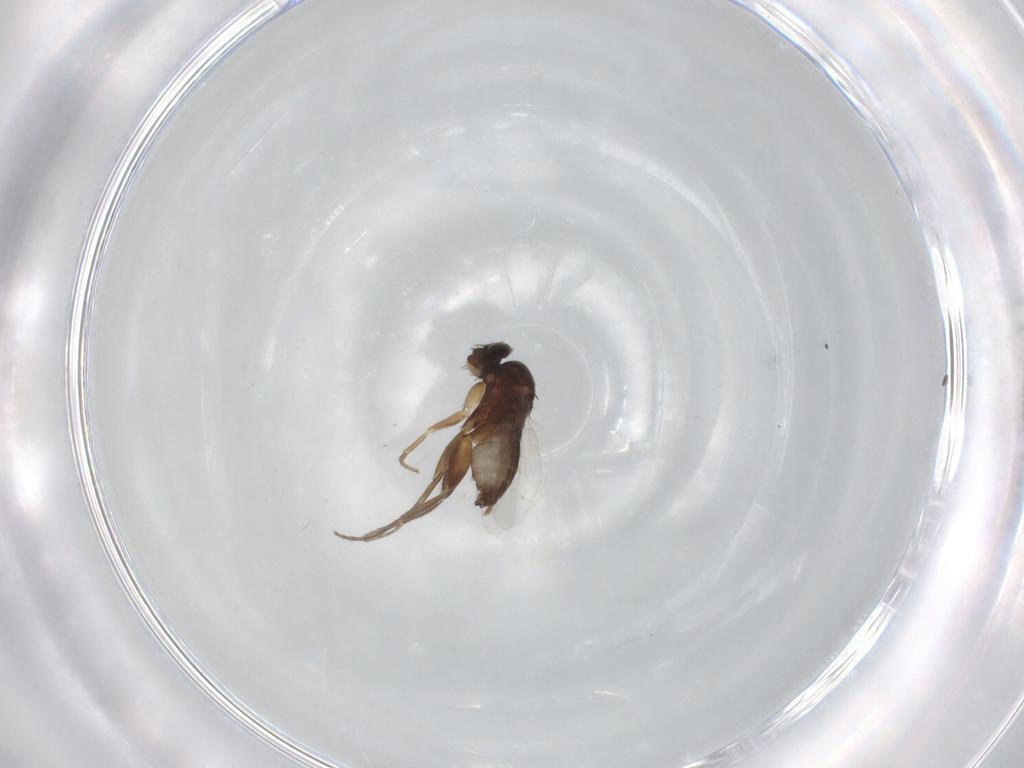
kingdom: Animalia
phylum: Arthropoda
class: Insecta
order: Diptera
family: Phoridae
